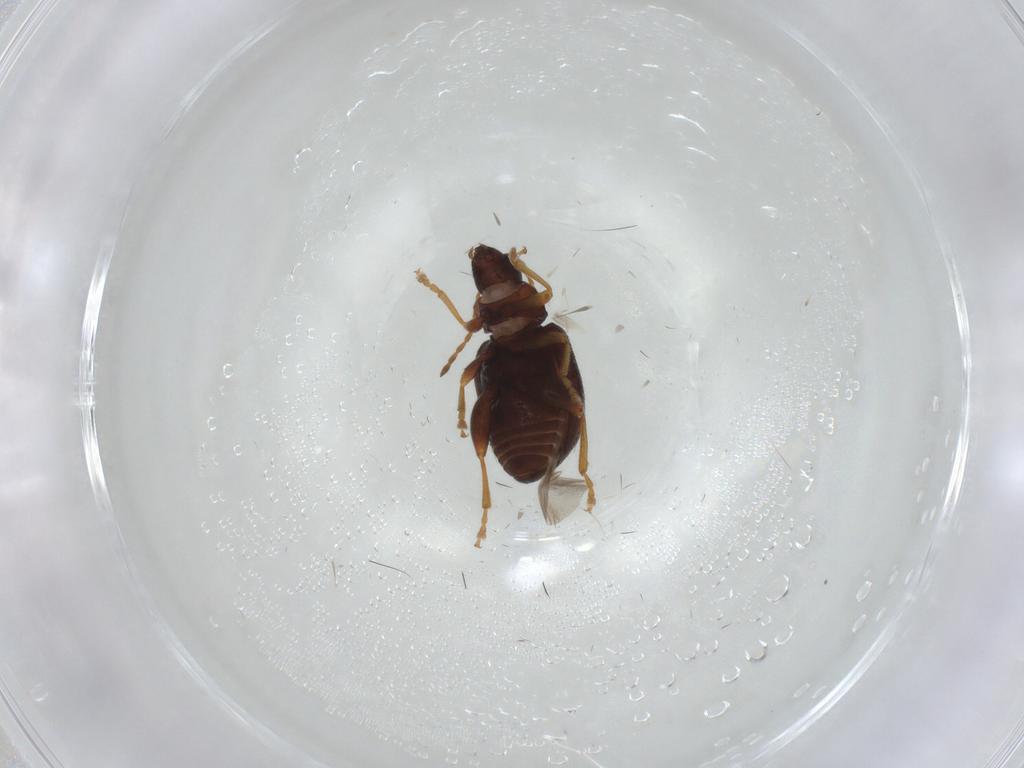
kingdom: Animalia
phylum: Arthropoda
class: Insecta
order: Coleoptera
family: Chrysomelidae
